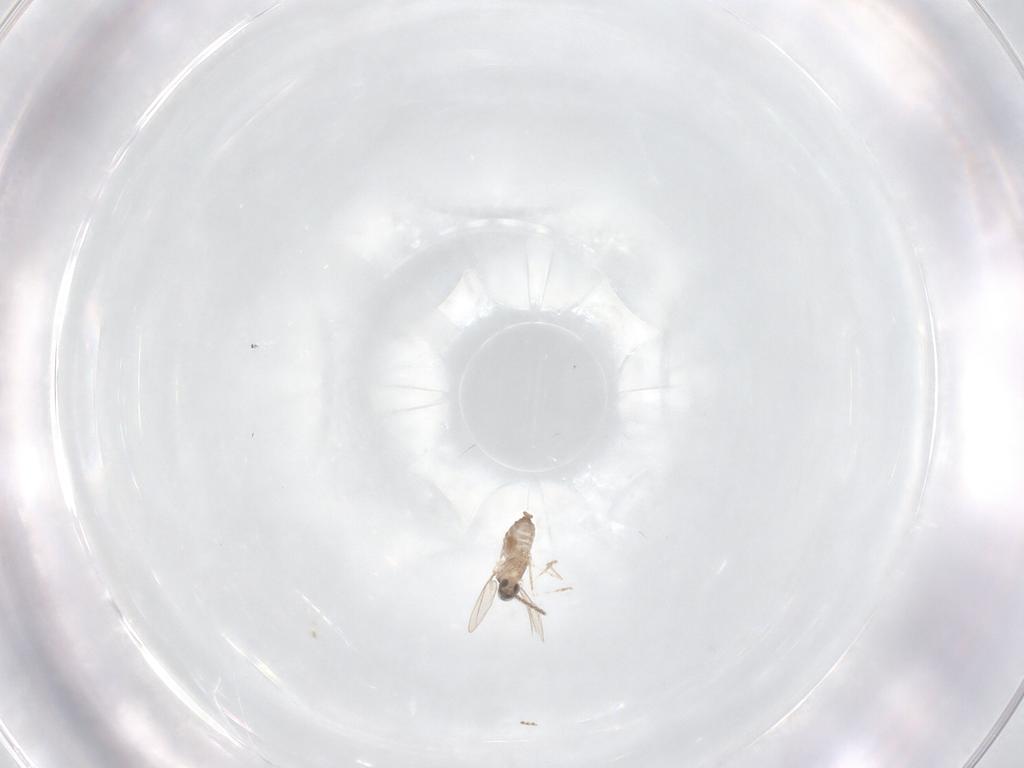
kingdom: Animalia
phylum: Arthropoda
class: Insecta
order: Diptera
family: Cecidomyiidae
